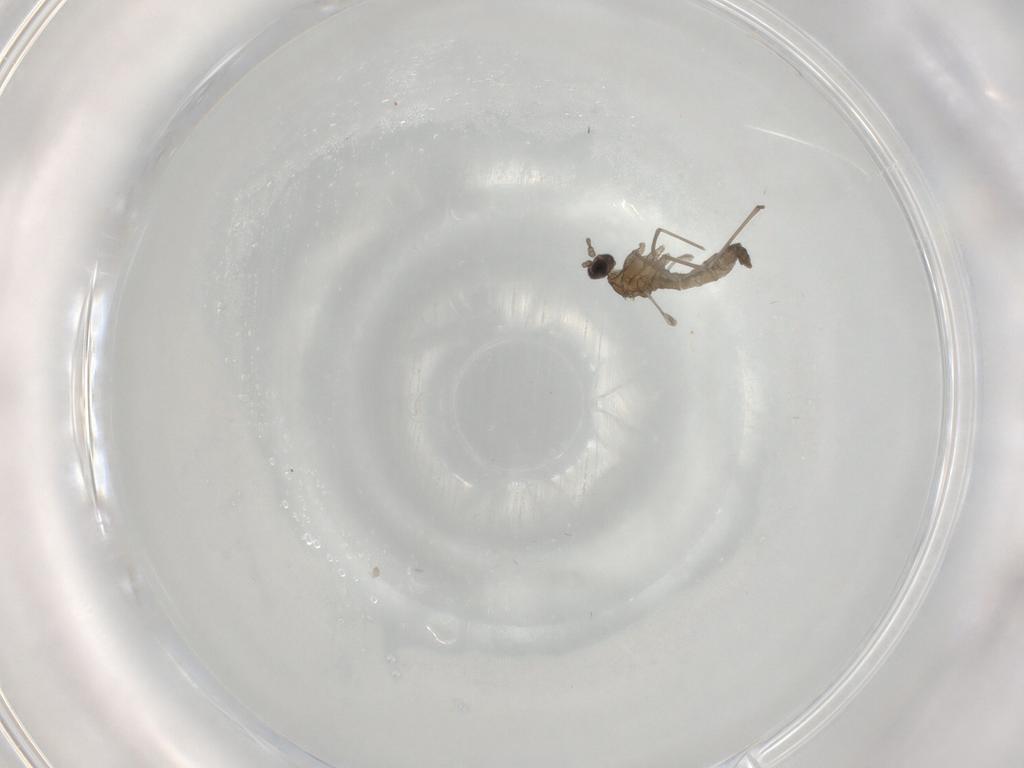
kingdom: Animalia
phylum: Arthropoda
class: Insecta
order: Diptera
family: Cecidomyiidae
